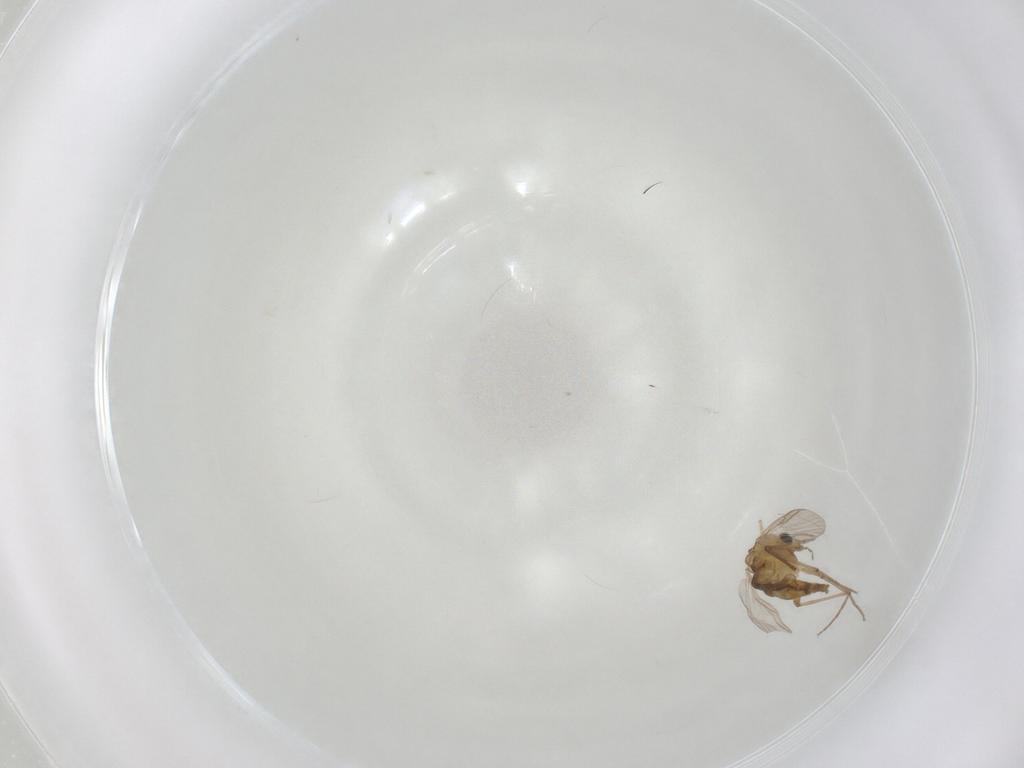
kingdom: Animalia
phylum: Arthropoda
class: Insecta
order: Diptera
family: Chironomidae
